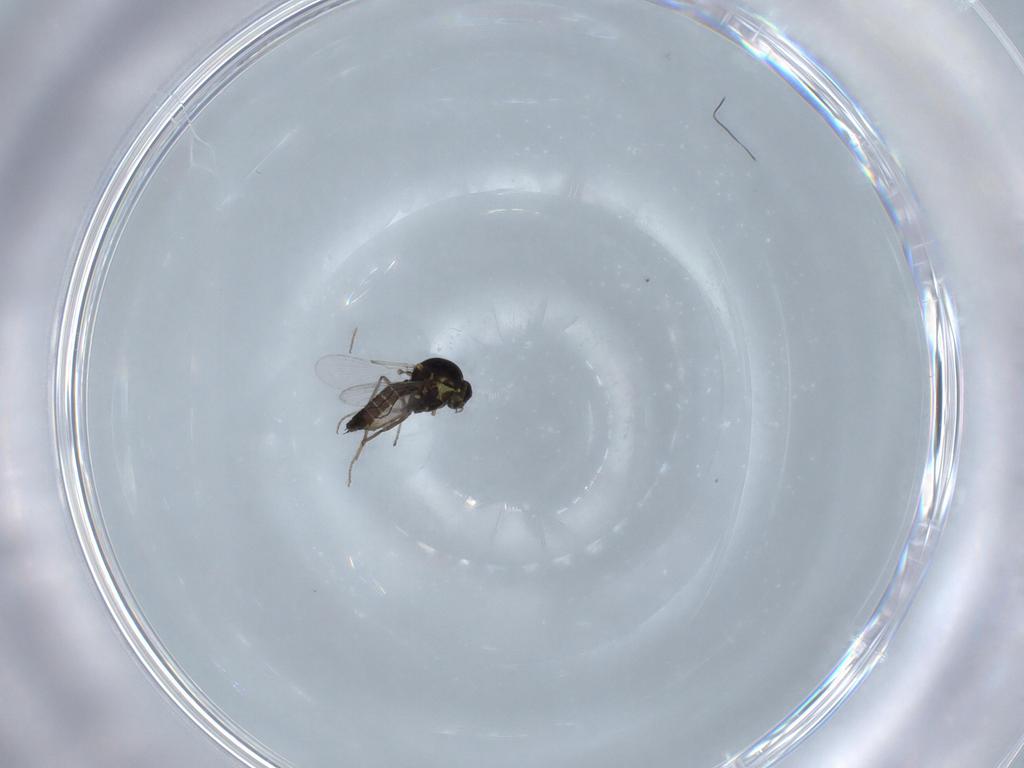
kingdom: Animalia
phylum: Arthropoda
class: Insecta
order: Diptera
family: Ceratopogonidae
